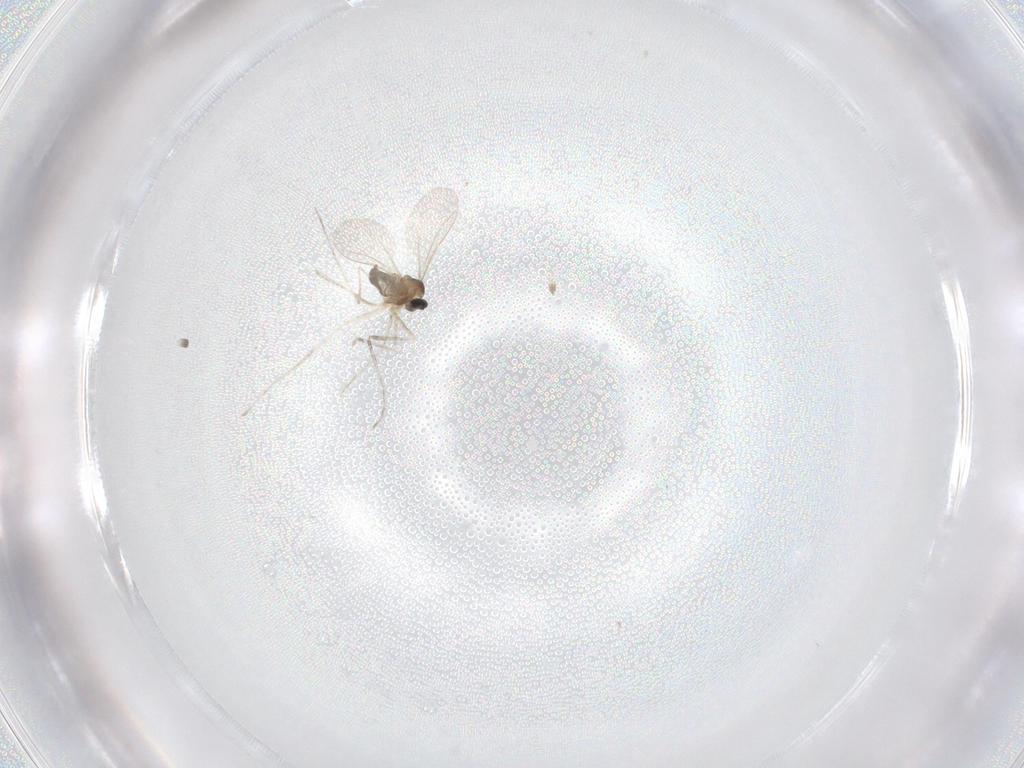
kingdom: Animalia
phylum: Arthropoda
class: Insecta
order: Diptera
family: Cecidomyiidae
